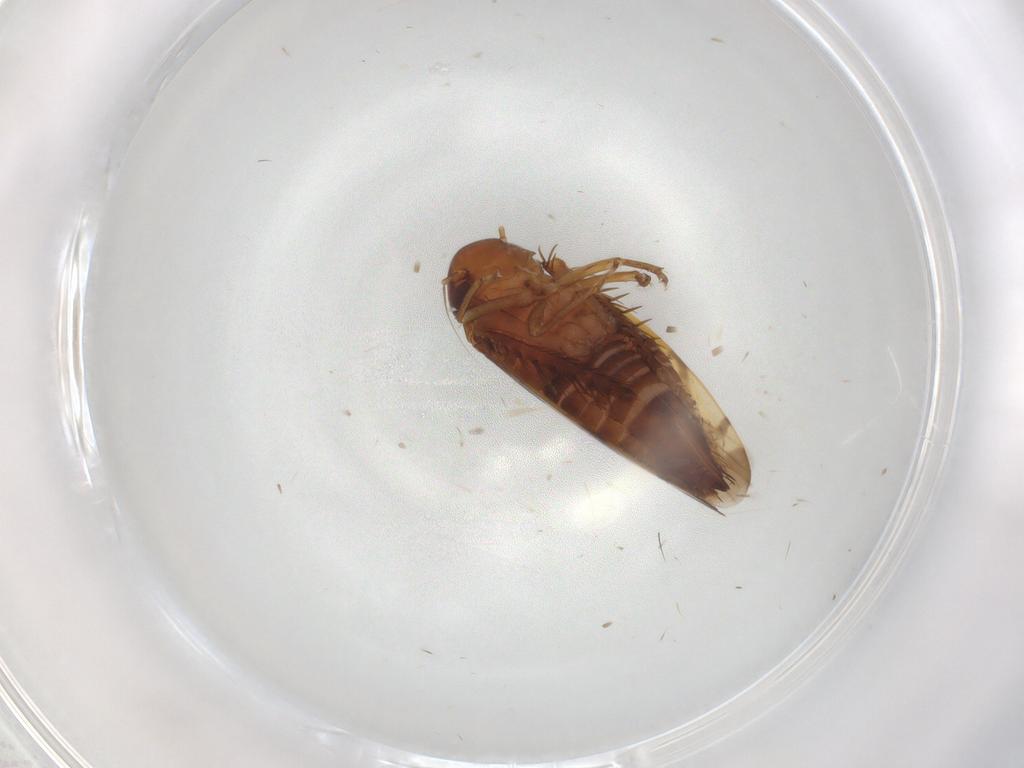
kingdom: Animalia
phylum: Arthropoda
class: Insecta
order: Hemiptera
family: Cicadellidae
